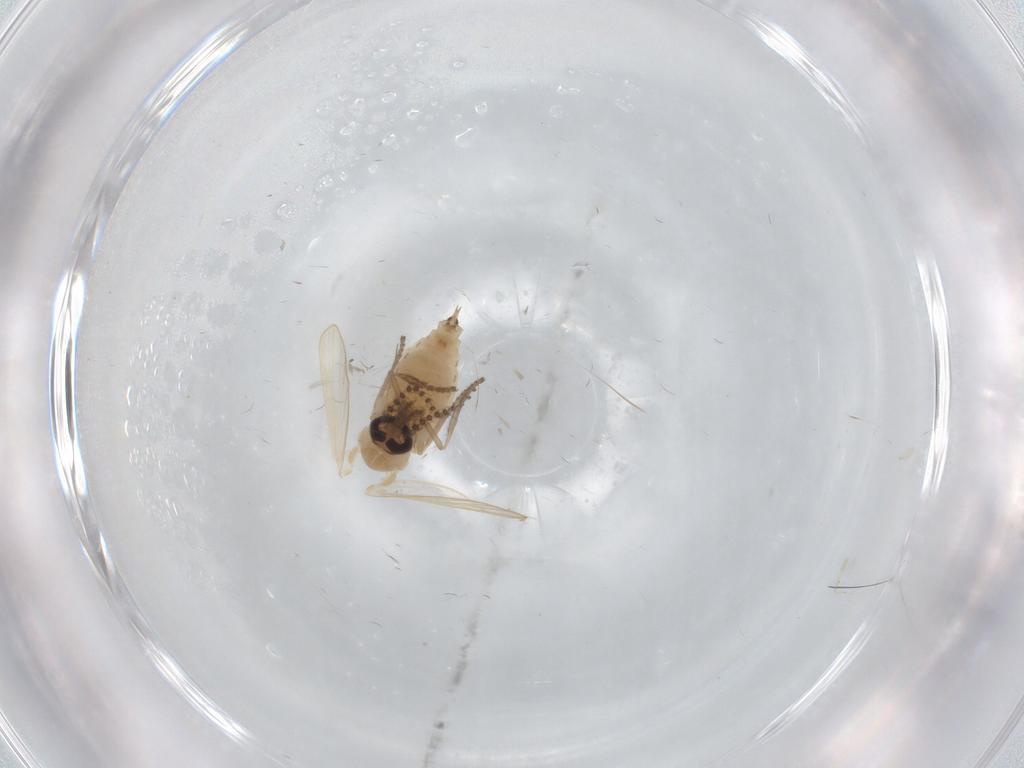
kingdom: Animalia
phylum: Arthropoda
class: Insecta
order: Diptera
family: Psychodidae
